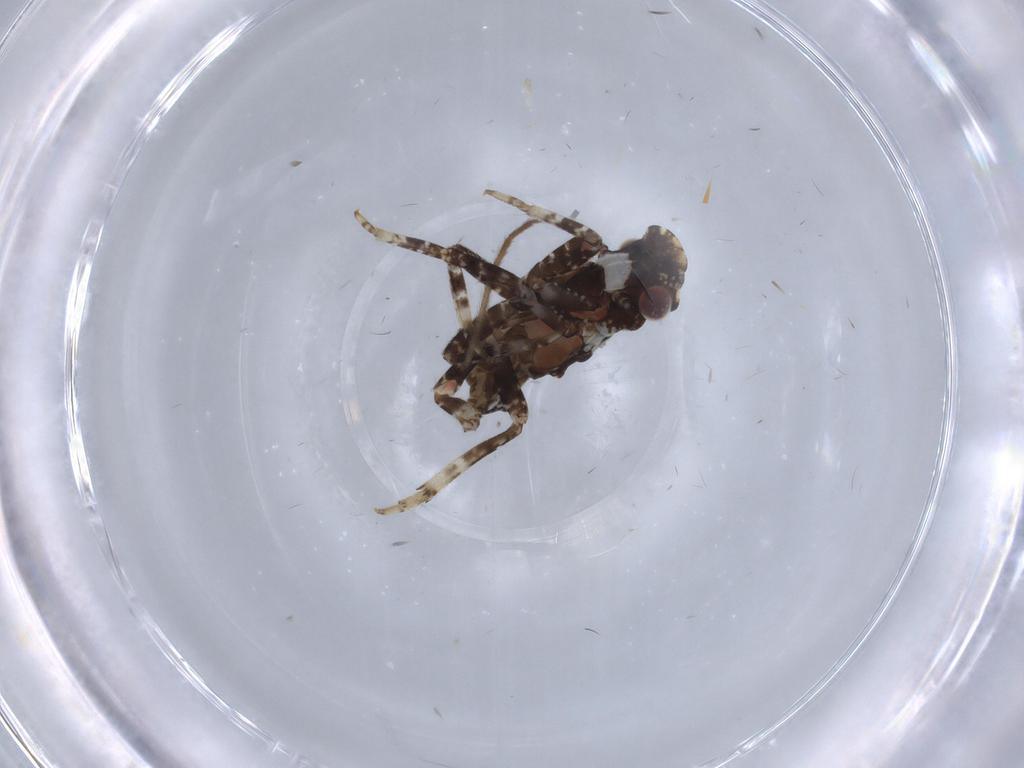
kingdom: Animalia
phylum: Arthropoda
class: Insecta
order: Hemiptera
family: Fulgoridae
